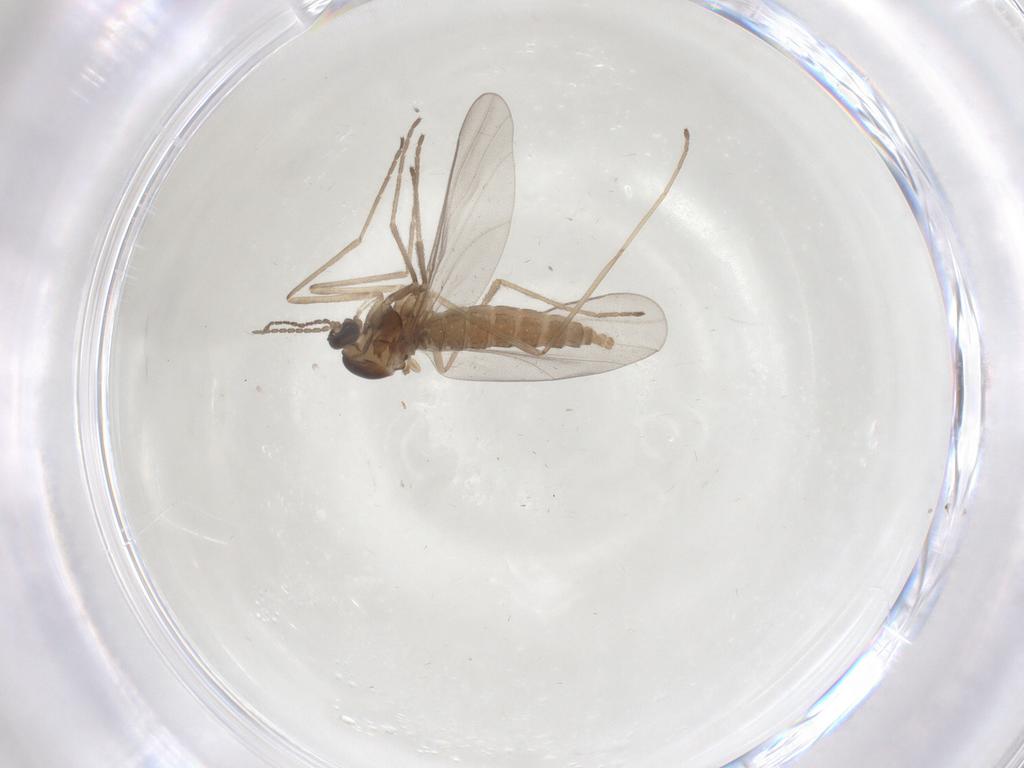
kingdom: Animalia
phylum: Arthropoda
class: Insecta
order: Diptera
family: Cecidomyiidae
